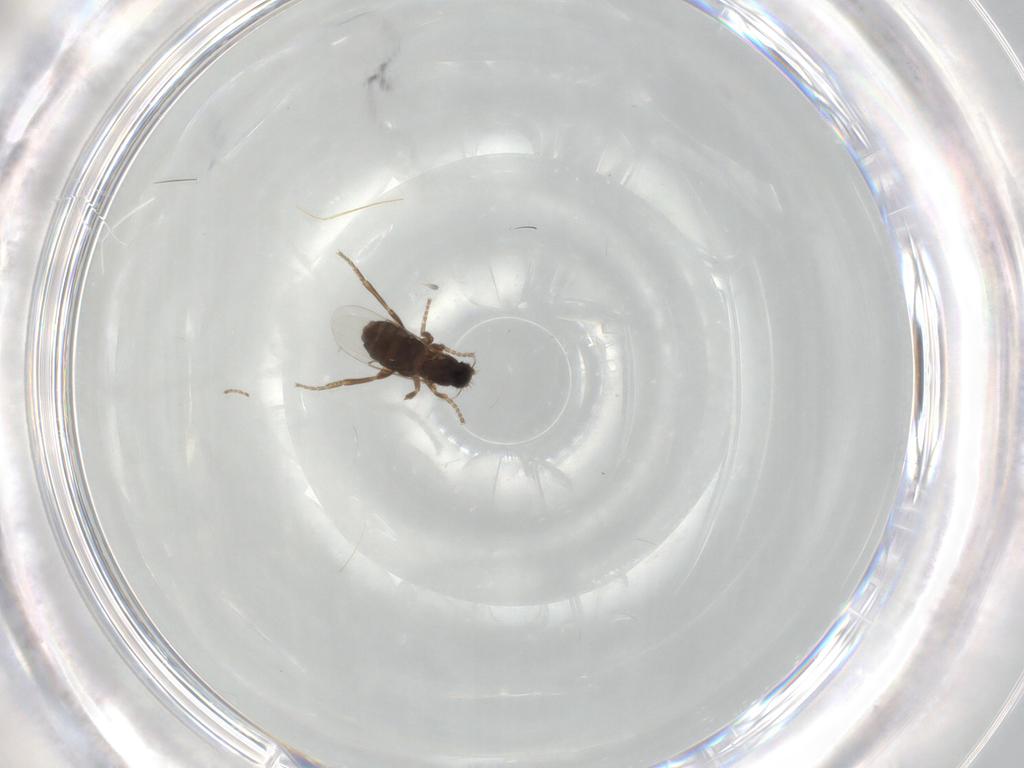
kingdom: Animalia
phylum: Arthropoda
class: Insecta
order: Diptera
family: Phoridae
